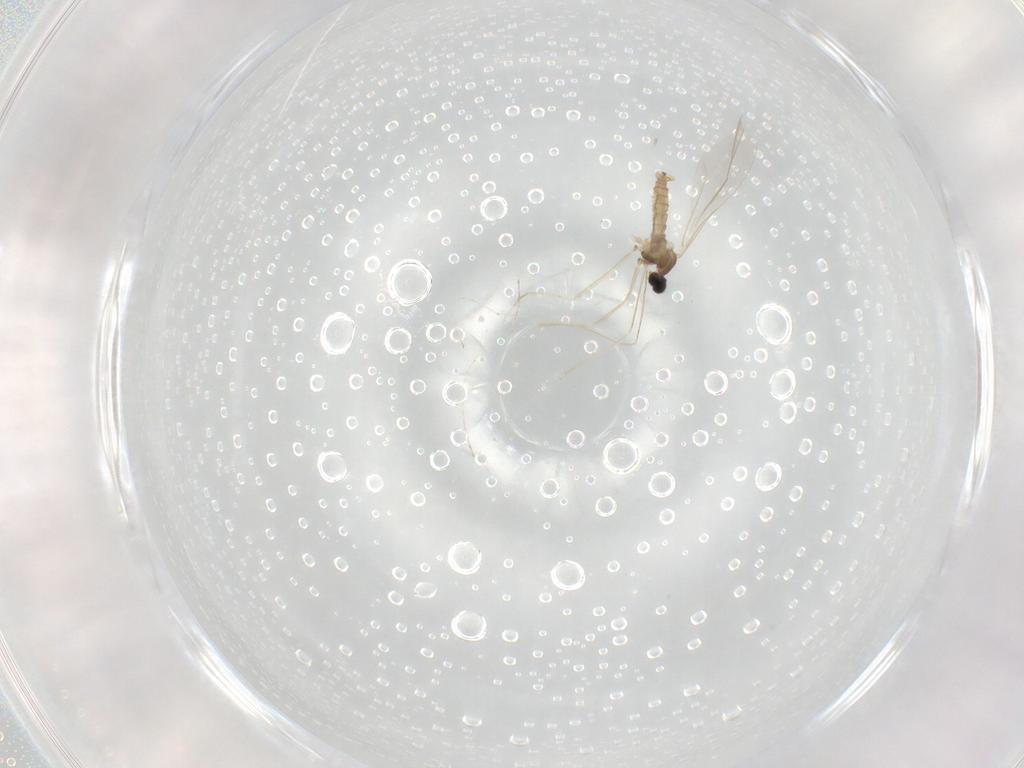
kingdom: Animalia
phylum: Arthropoda
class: Insecta
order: Diptera
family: Cecidomyiidae
